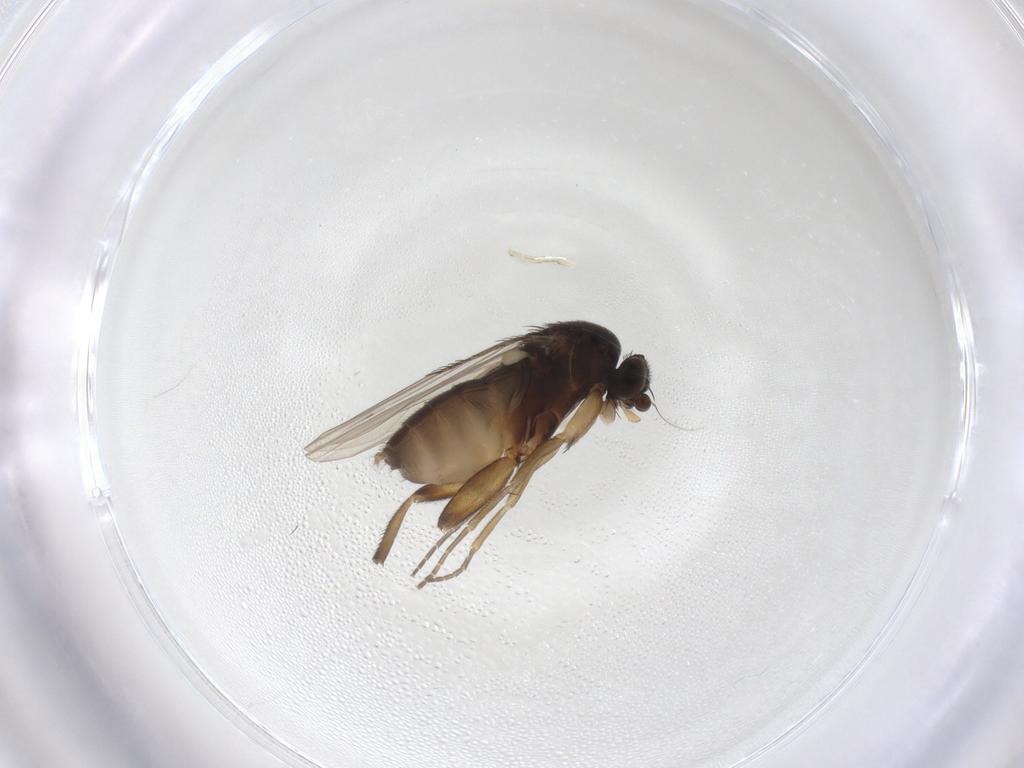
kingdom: Animalia
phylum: Arthropoda
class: Insecta
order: Diptera
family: Phoridae
